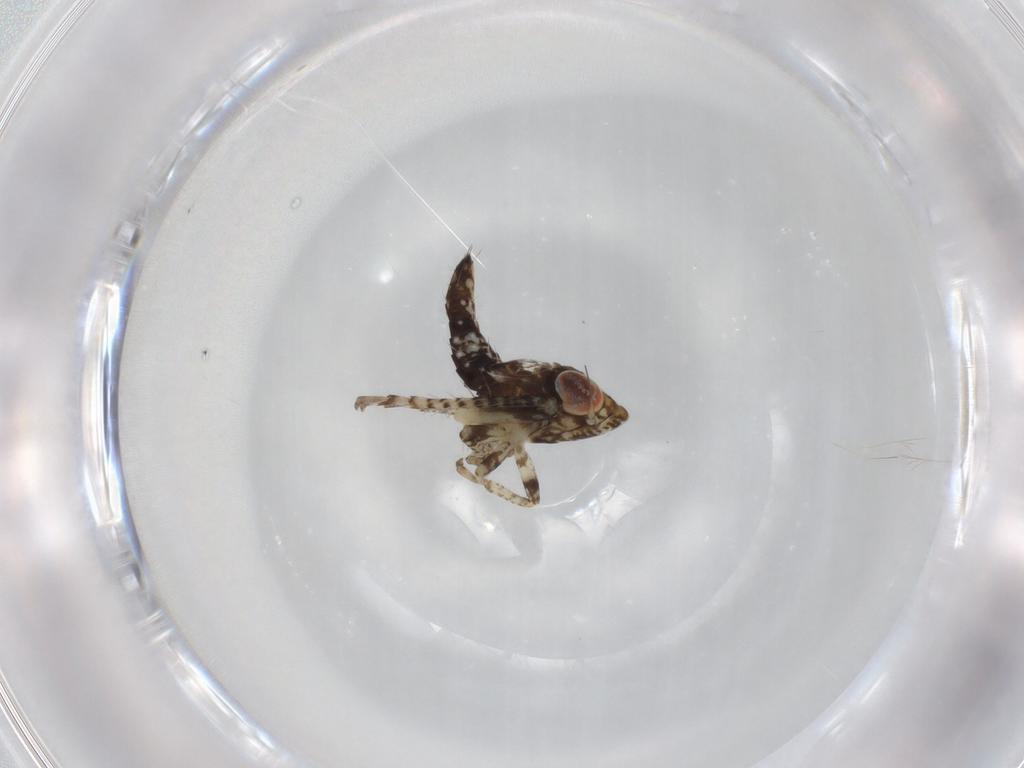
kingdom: Animalia
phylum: Arthropoda
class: Insecta
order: Hemiptera
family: Cicadellidae
